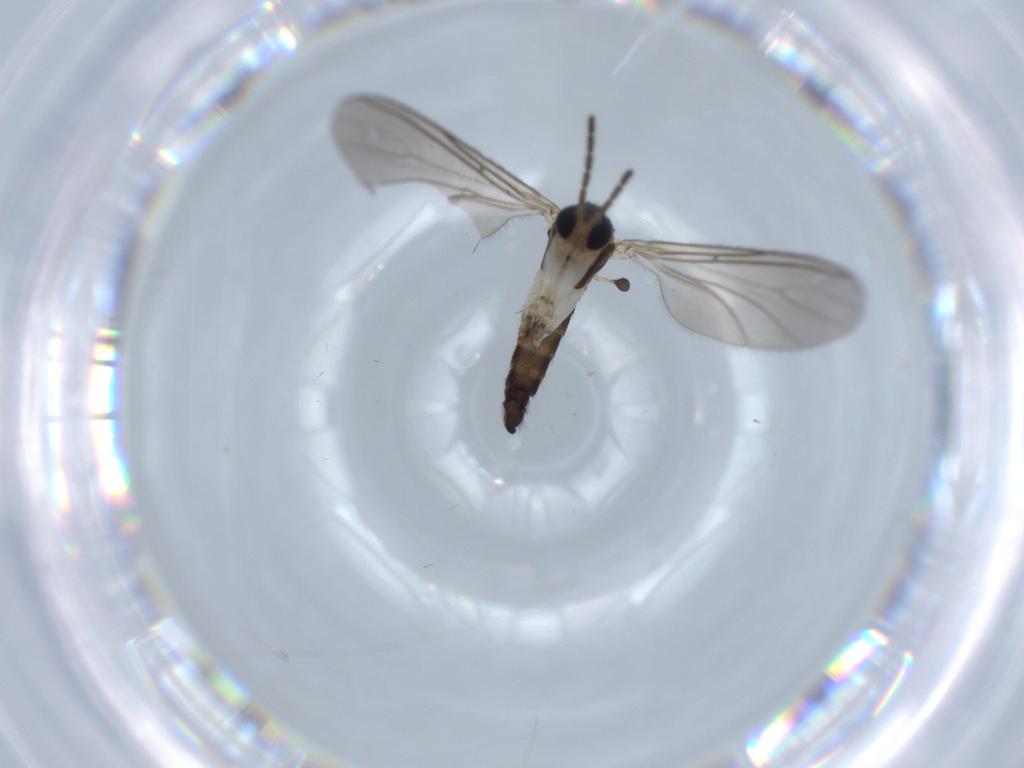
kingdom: Animalia
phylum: Arthropoda
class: Insecta
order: Diptera
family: Sciaridae
